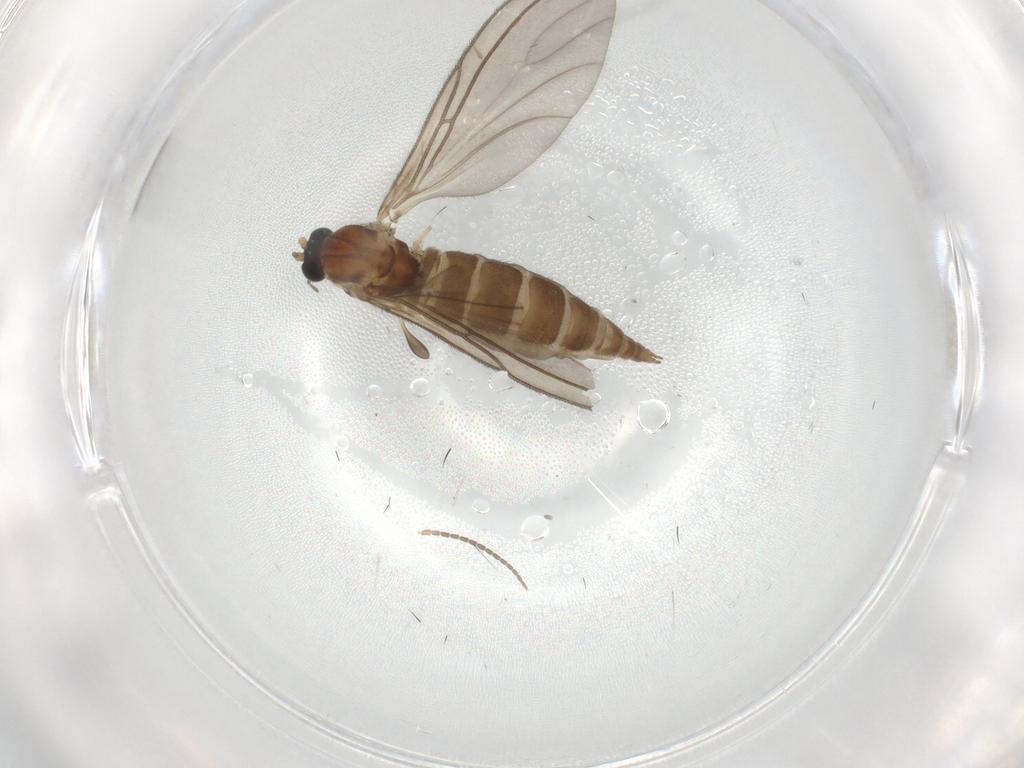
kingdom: Animalia
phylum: Arthropoda
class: Insecta
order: Diptera
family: Sciaridae
